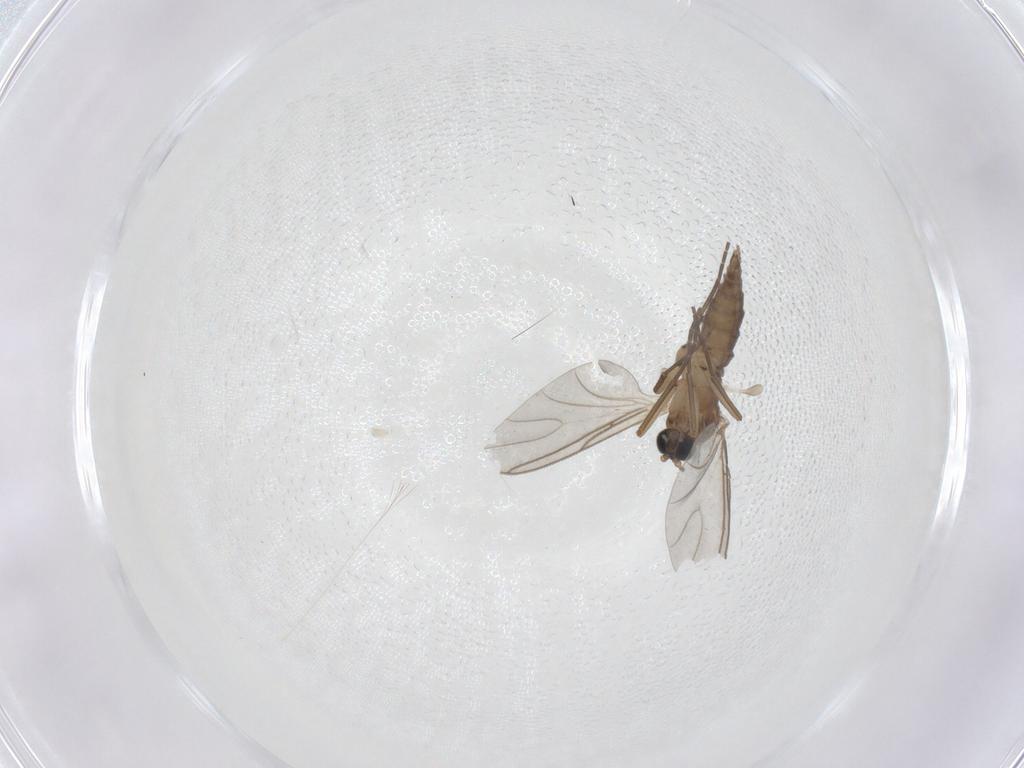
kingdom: Animalia
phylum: Arthropoda
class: Insecta
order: Diptera
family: Sciaridae
